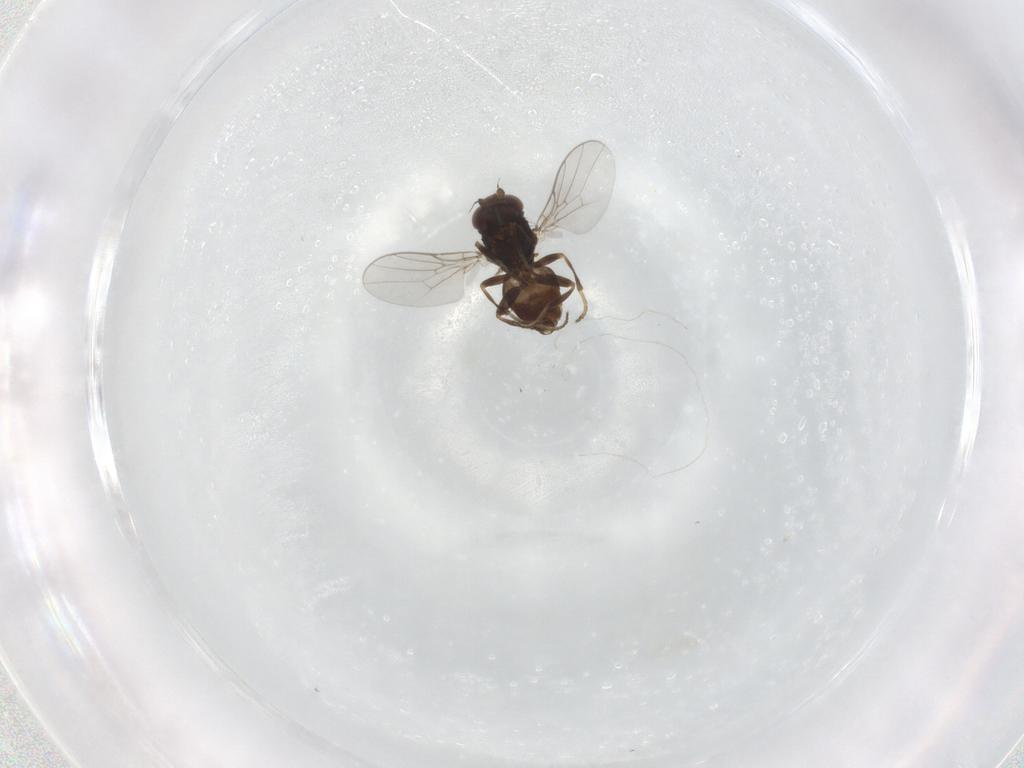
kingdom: Animalia
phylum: Arthropoda
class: Insecta
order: Diptera
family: Chloropidae
